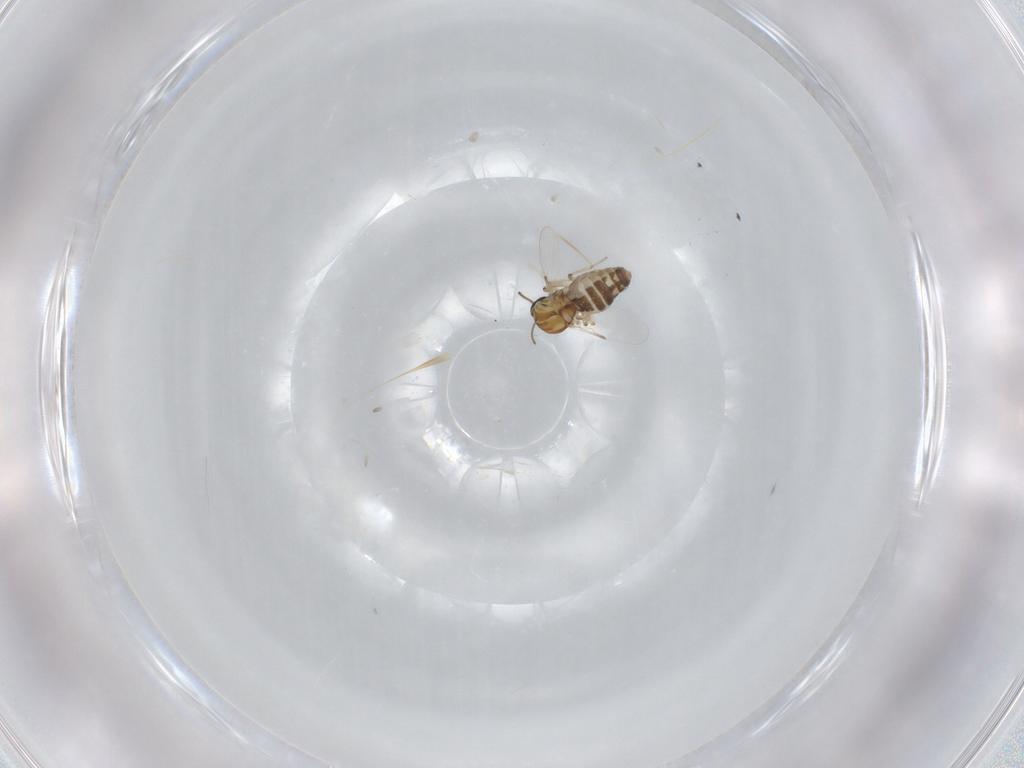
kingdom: Animalia
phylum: Arthropoda
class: Insecta
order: Diptera
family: Ceratopogonidae
